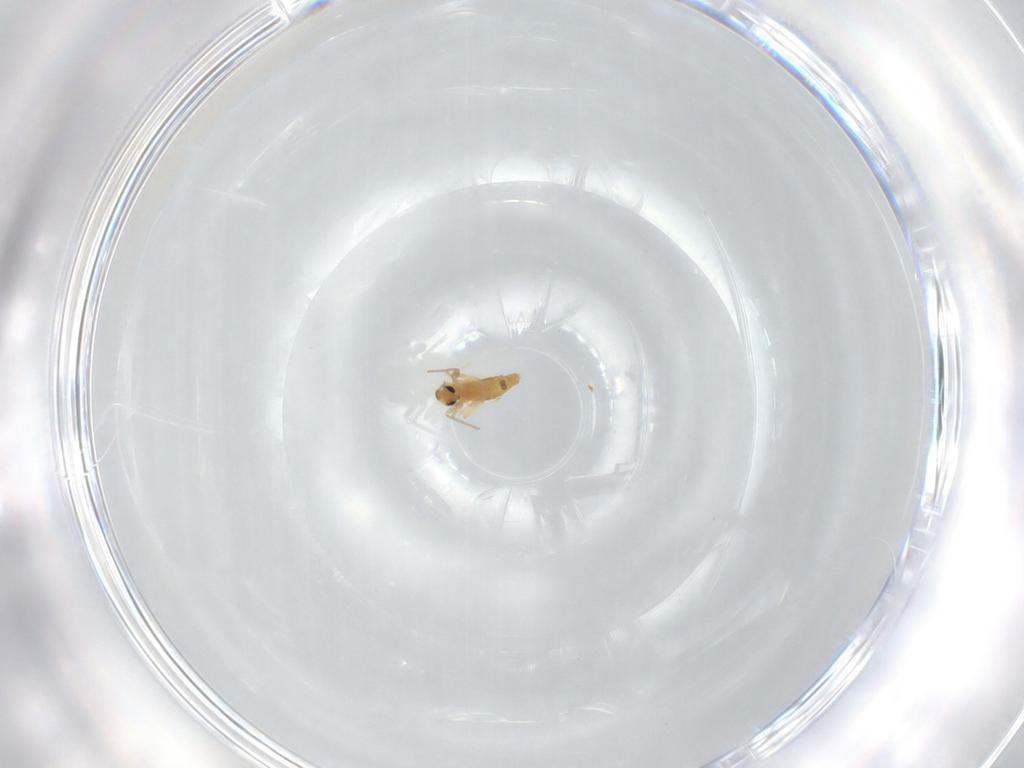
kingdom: Animalia
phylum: Arthropoda
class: Insecta
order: Diptera
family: Chironomidae
